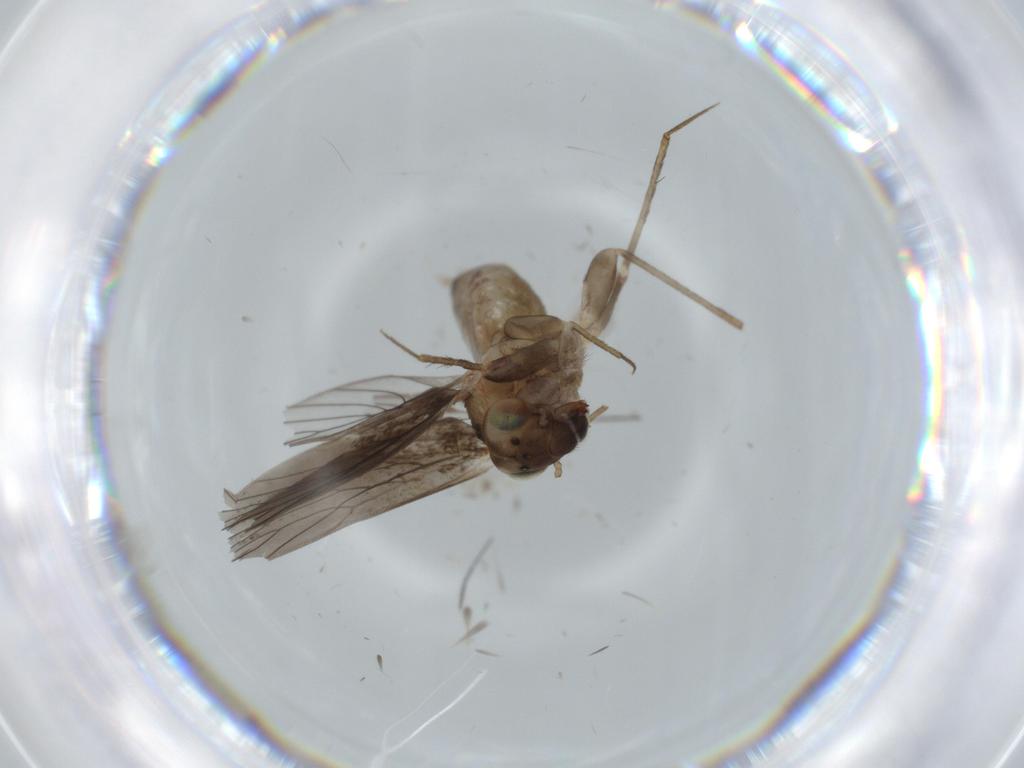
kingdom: Animalia
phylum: Arthropoda
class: Insecta
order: Psocodea
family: Lepidopsocidae
